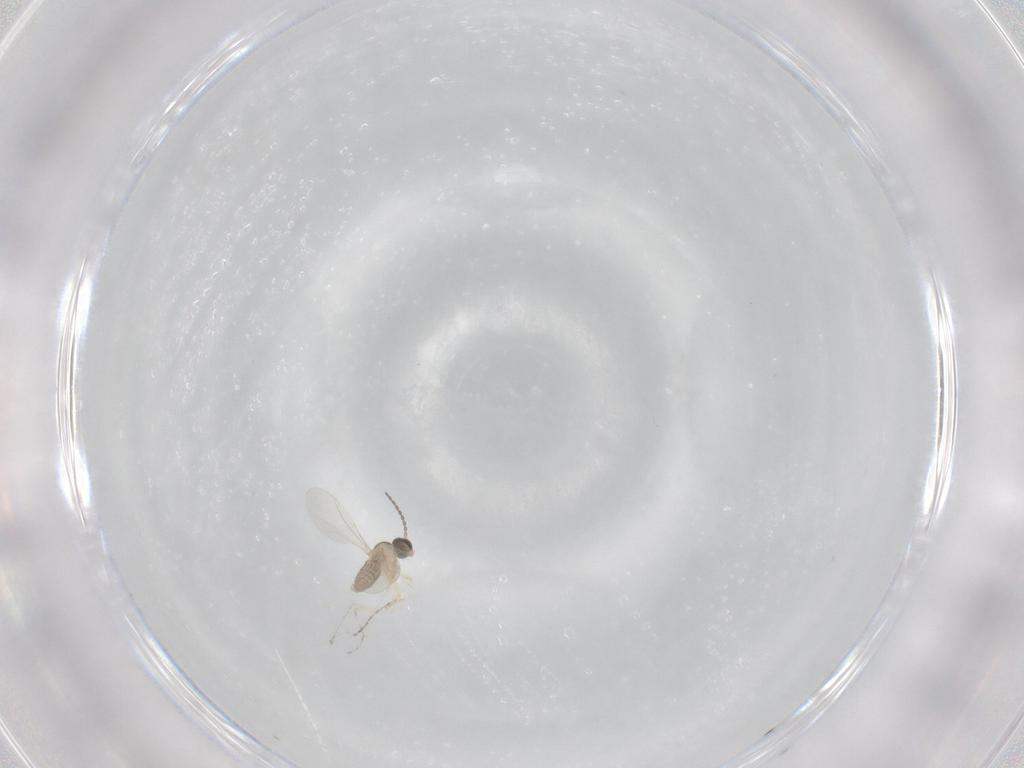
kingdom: Animalia
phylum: Arthropoda
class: Insecta
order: Diptera
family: Cecidomyiidae
